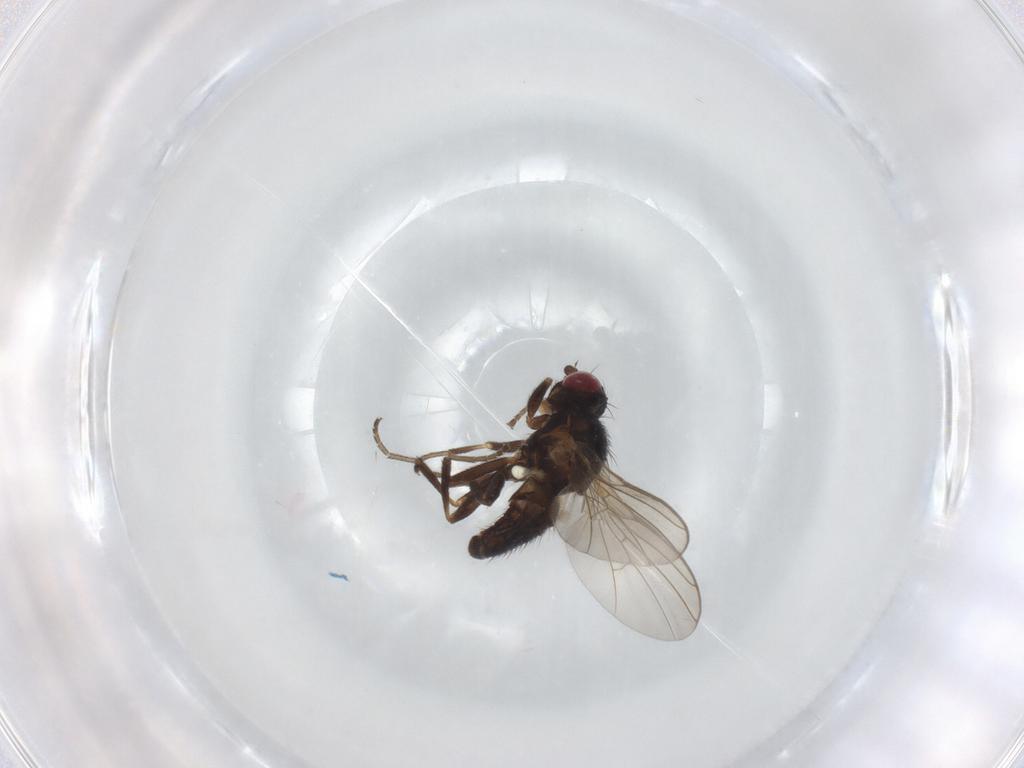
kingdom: Animalia
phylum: Arthropoda
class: Insecta
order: Diptera
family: Agromyzidae
